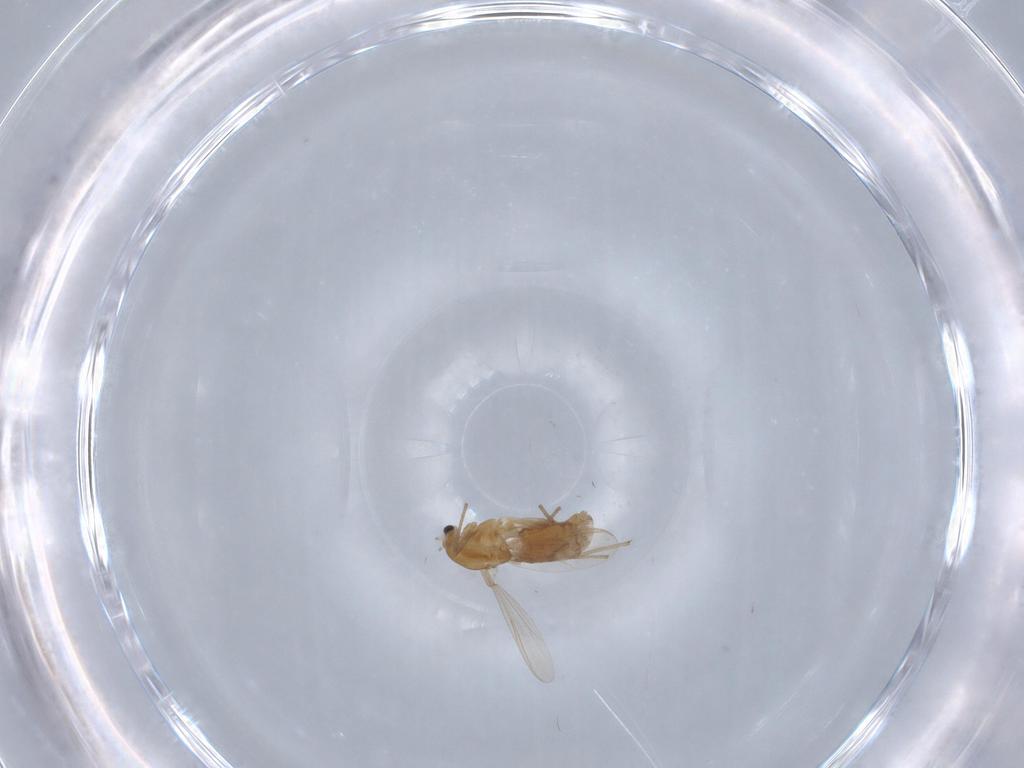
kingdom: Animalia
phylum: Arthropoda
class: Insecta
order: Diptera
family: Chironomidae
